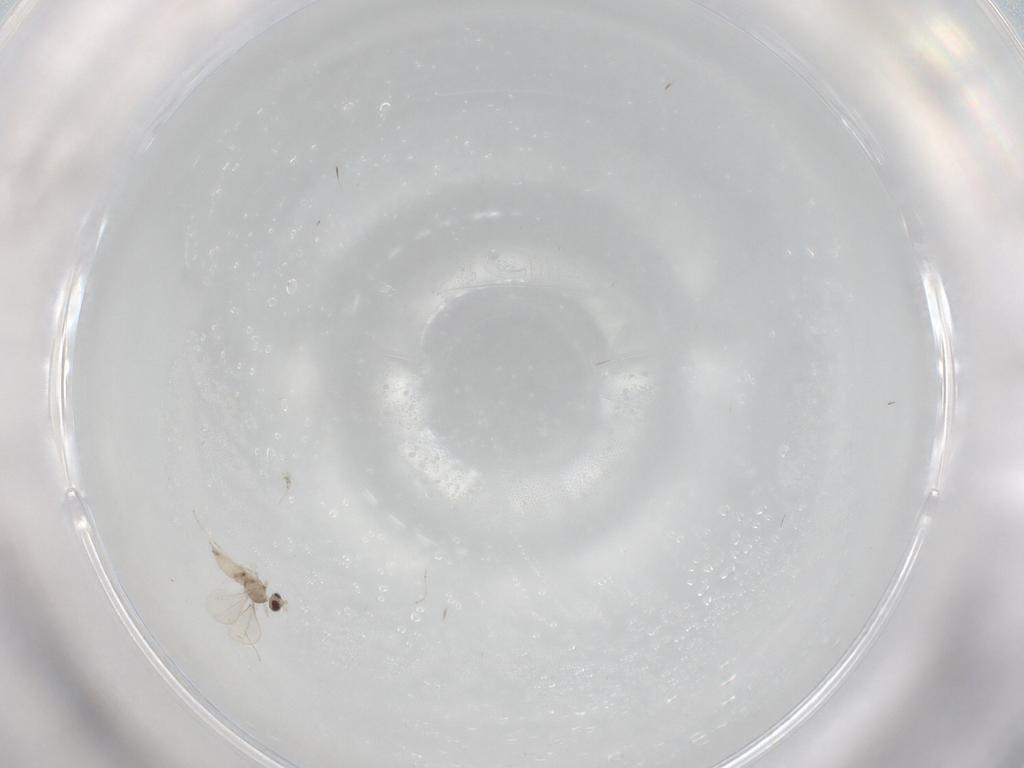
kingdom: Animalia
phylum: Arthropoda
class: Insecta
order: Diptera
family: Cecidomyiidae
